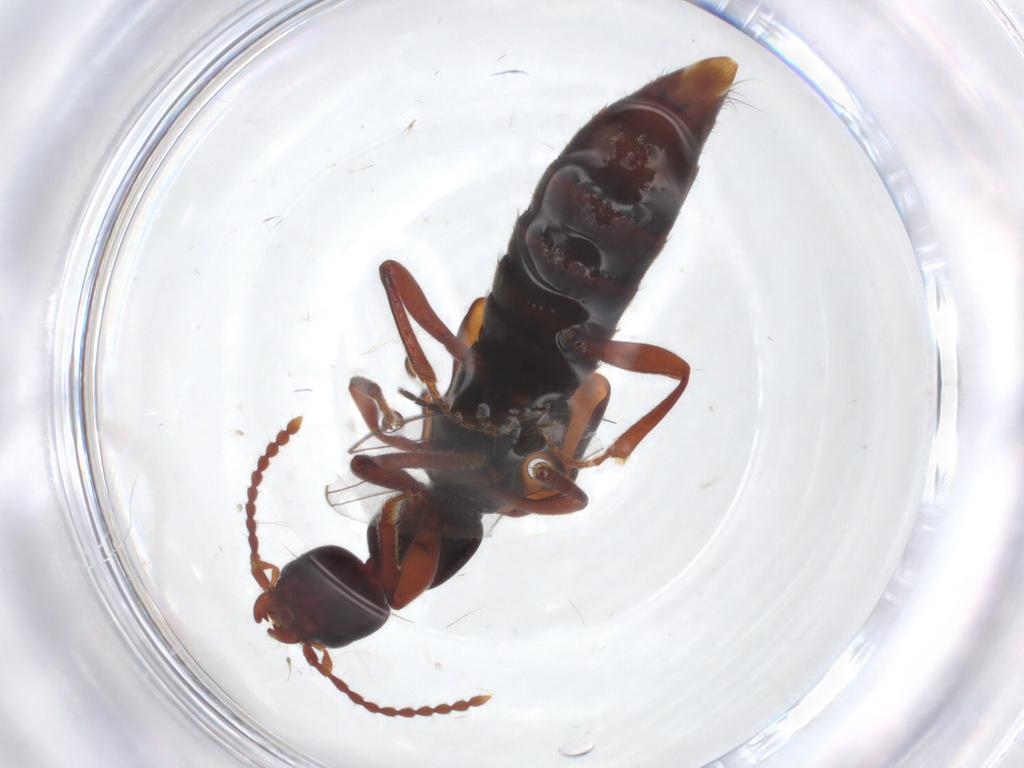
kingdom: Animalia
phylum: Arthropoda
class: Insecta
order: Coleoptera
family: Staphylinidae
